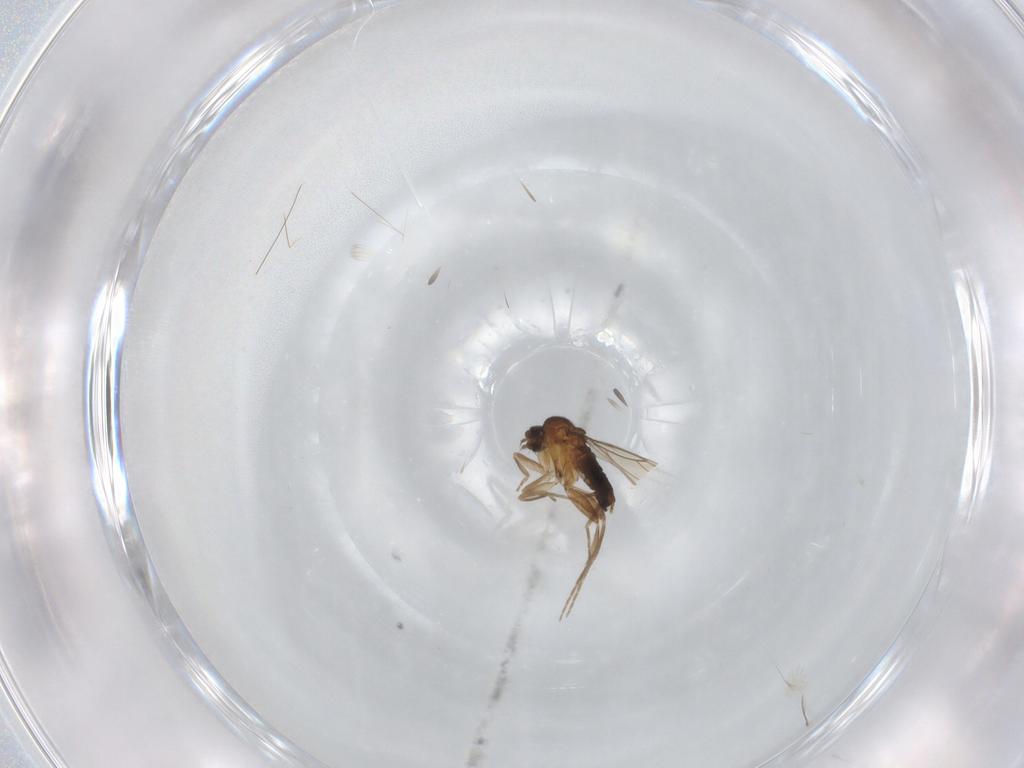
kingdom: Animalia
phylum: Arthropoda
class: Insecta
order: Diptera
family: Phoridae
